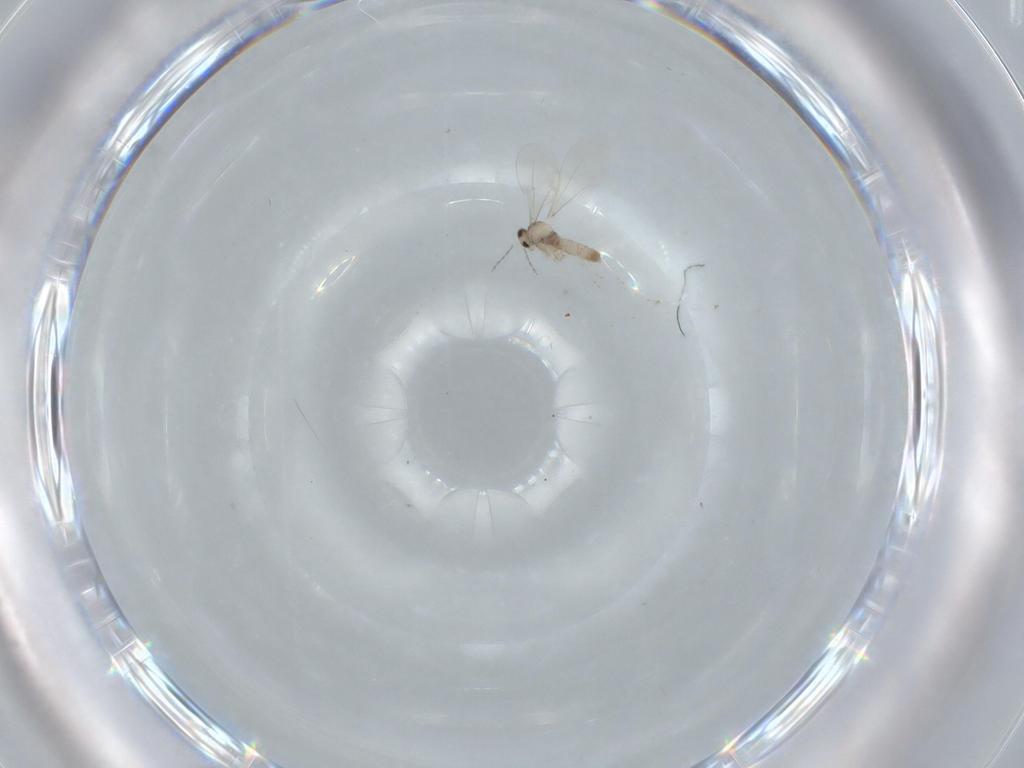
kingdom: Animalia
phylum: Arthropoda
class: Insecta
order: Diptera
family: Cecidomyiidae
